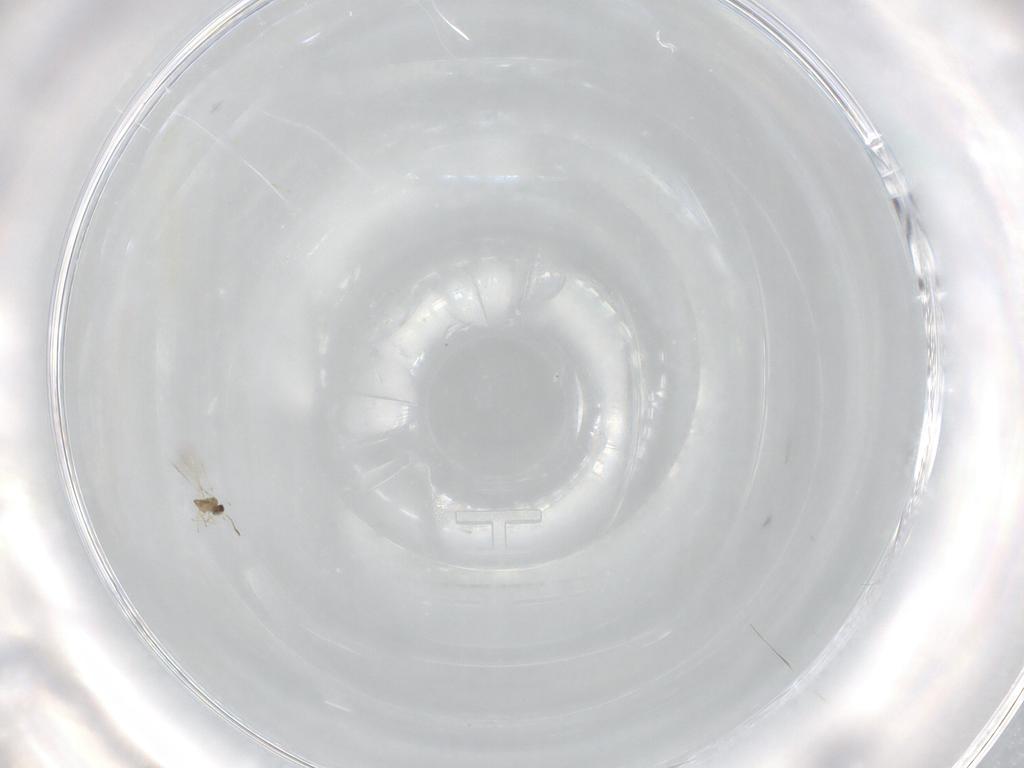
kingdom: Animalia
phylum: Arthropoda
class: Insecta
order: Hymenoptera
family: Mymaridae
